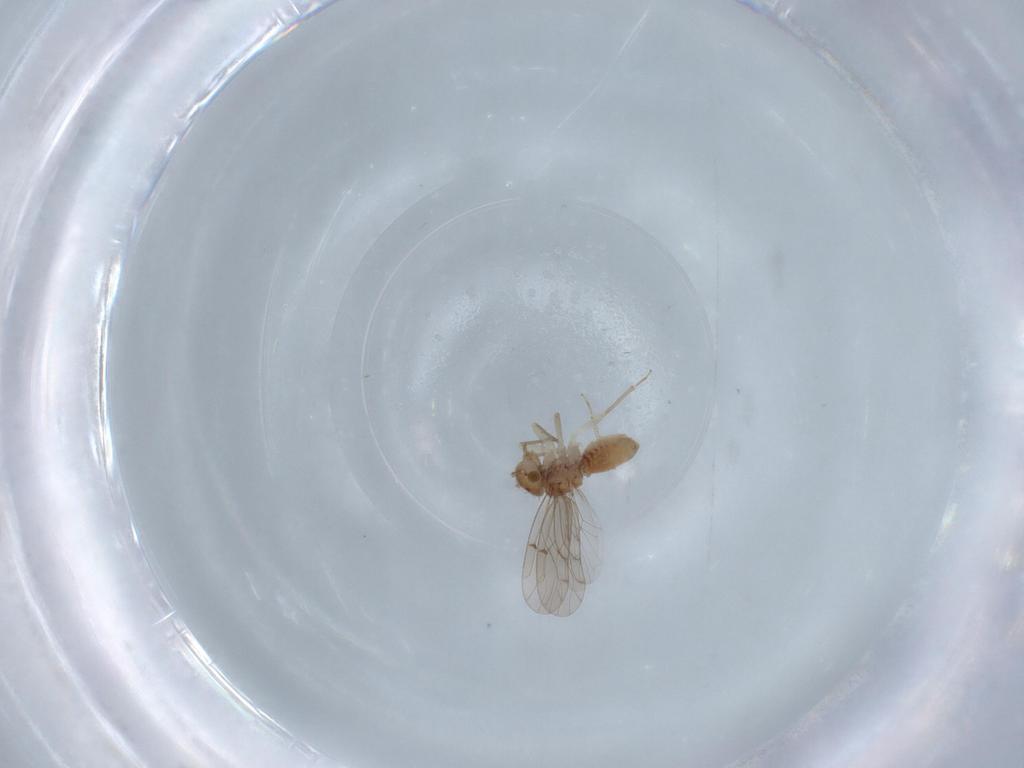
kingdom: Animalia
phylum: Arthropoda
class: Insecta
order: Psocodea
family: Ectopsocidae
